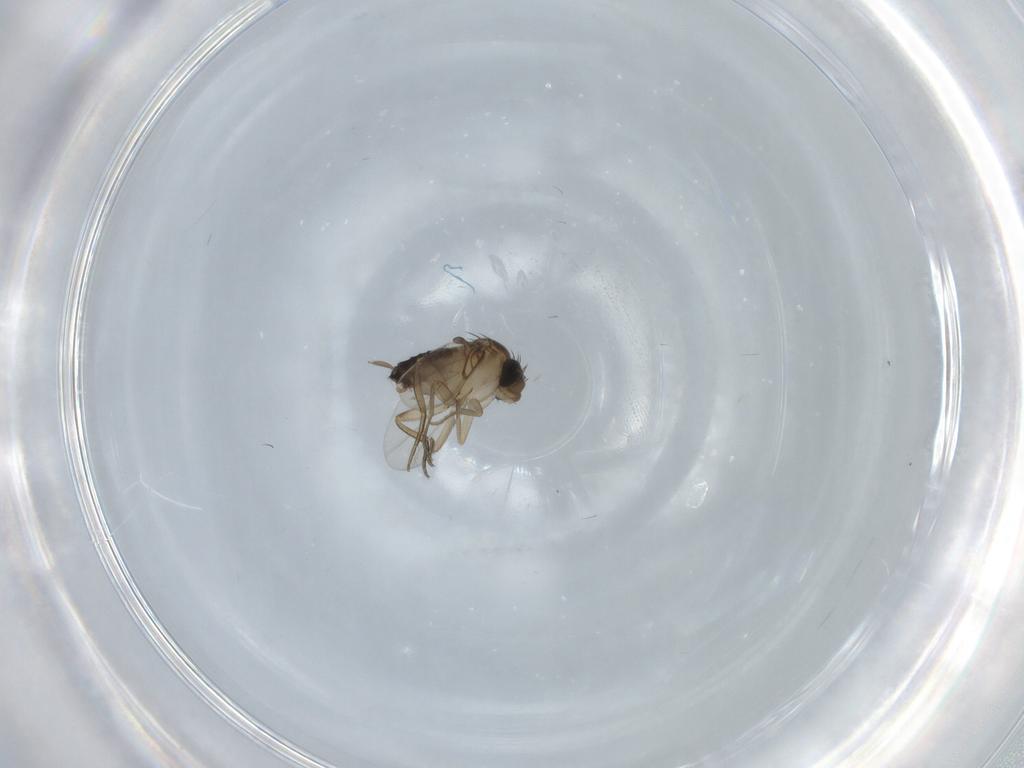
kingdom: Animalia
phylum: Arthropoda
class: Insecta
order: Diptera
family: Phoridae
